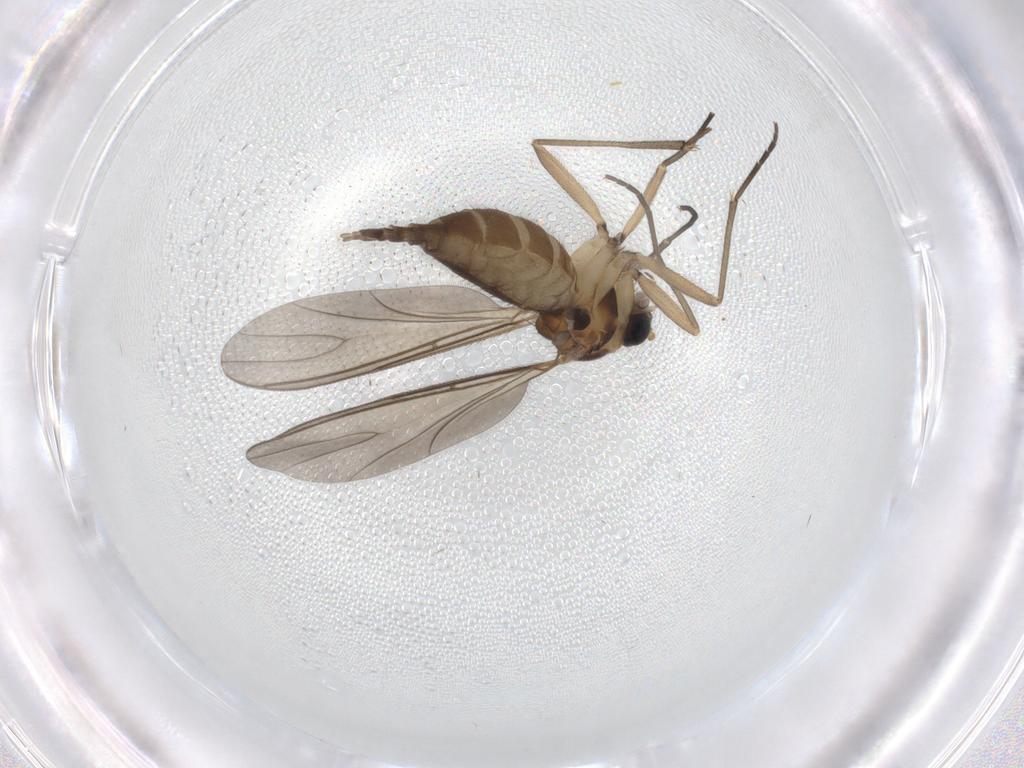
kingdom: Animalia
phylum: Arthropoda
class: Insecta
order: Diptera
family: Sciaridae
